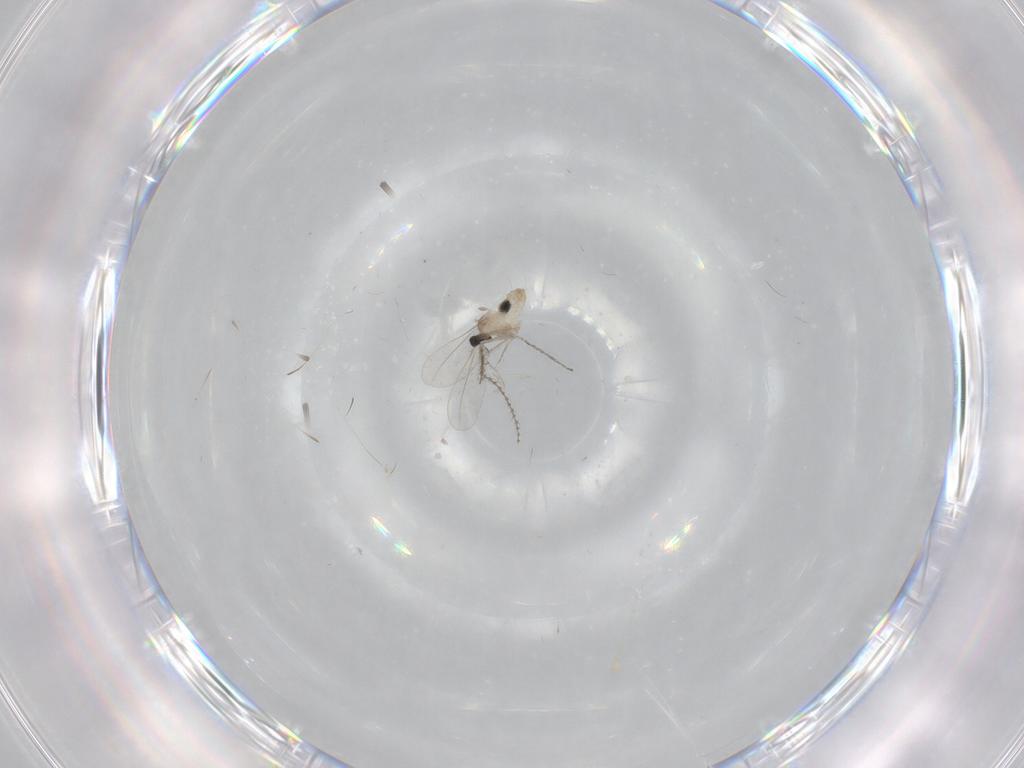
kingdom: Animalia
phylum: Arthropoda
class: Insecta
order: Diptera
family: Cecidomyiidae
